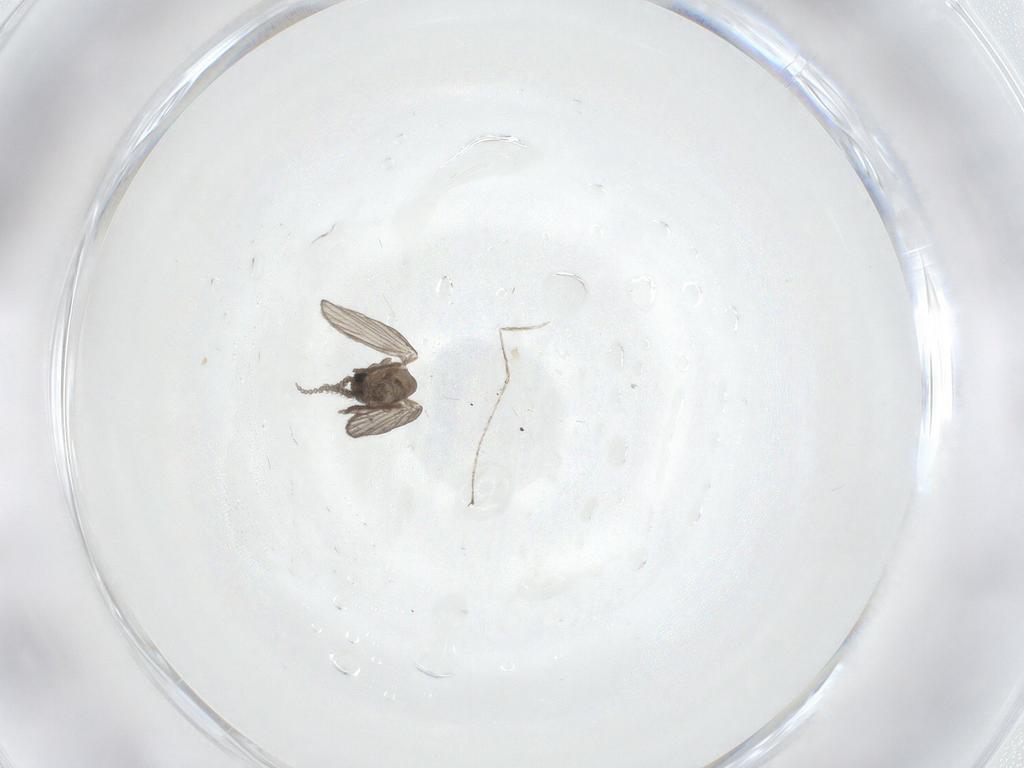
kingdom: Animalia
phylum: Arthropoda
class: Insecta
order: Diptera
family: Psychodidae
